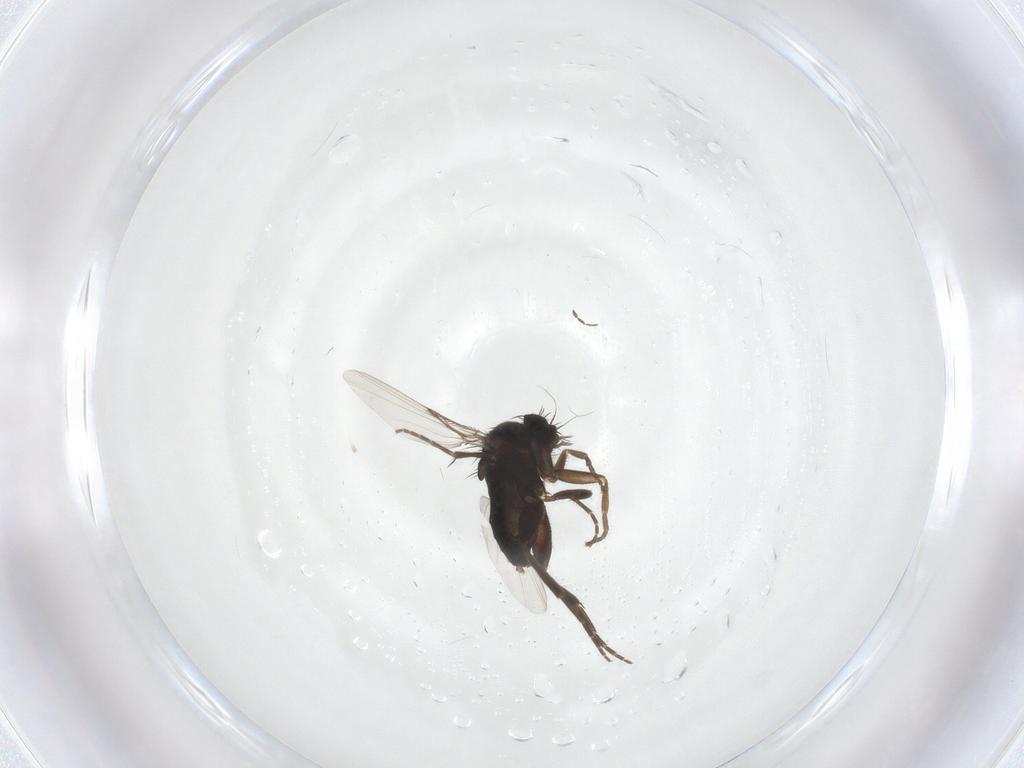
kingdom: Animalia
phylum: Arthropoda
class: Insecta
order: Diptera
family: Phoridae
